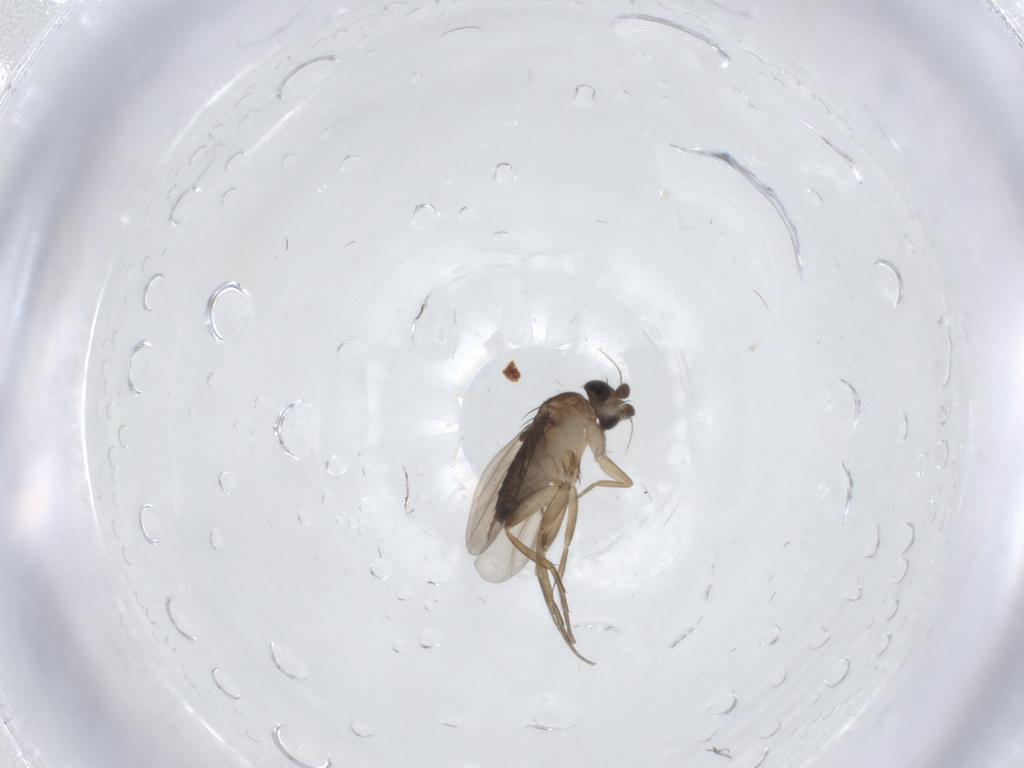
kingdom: Animalia
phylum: Arthropoda
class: Insecta
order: Diptera
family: Phoridae
